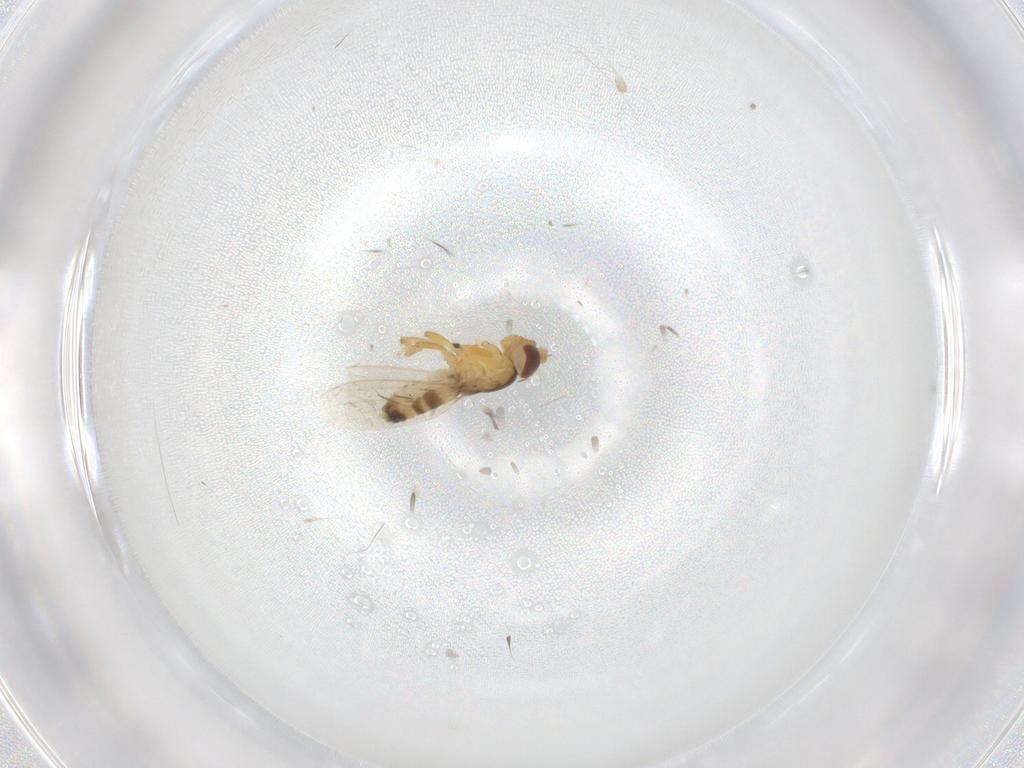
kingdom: Animalia
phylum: Arthropoda
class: Insecta
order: Diptera
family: Periscelididae
